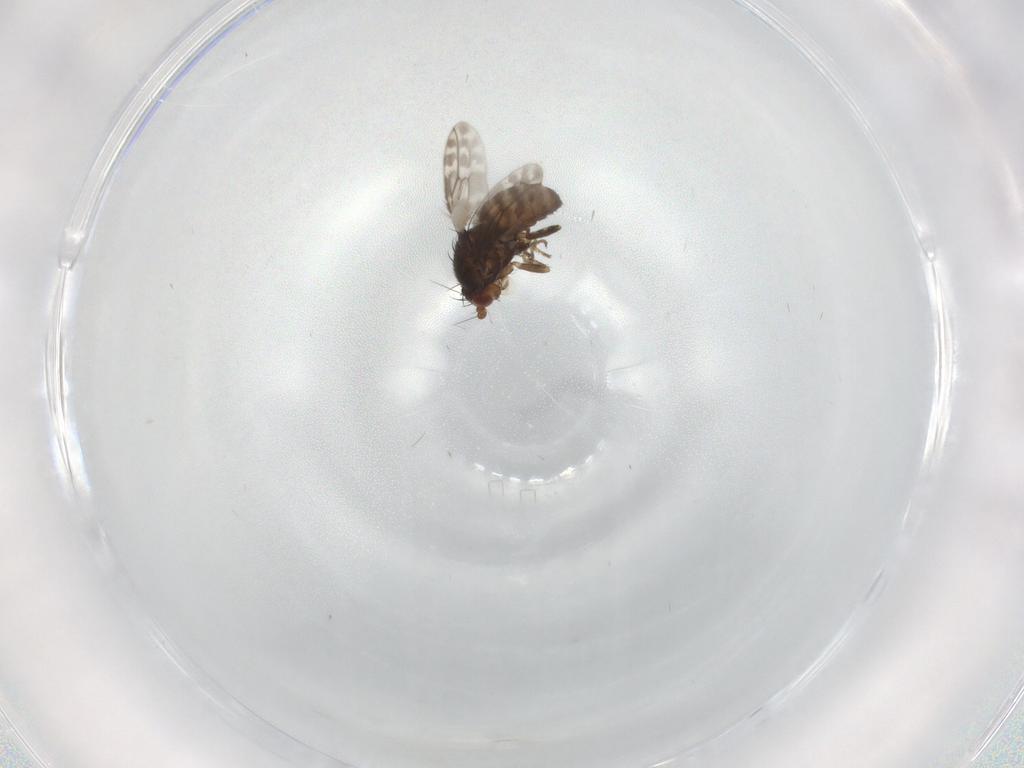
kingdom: Animalia
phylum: Arthropoda
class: Insecta
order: Diptera
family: Sphaeroceridae
